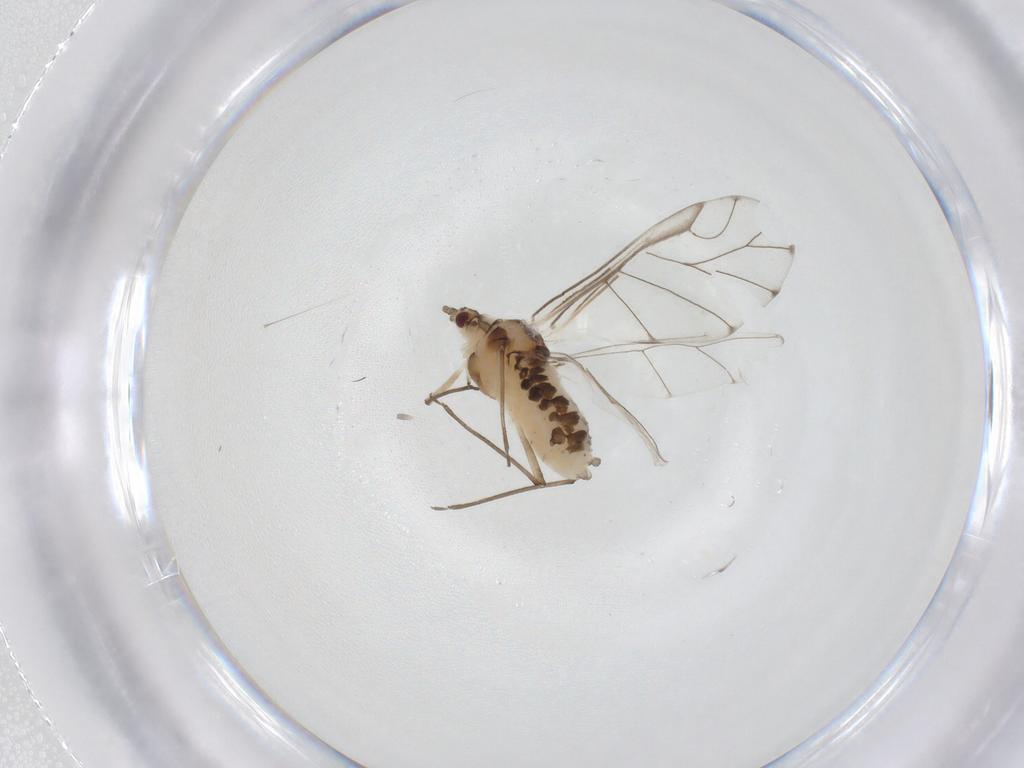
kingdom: Animalia
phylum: Arthropoda
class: Insecta
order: Hemiptera
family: Aphididae
